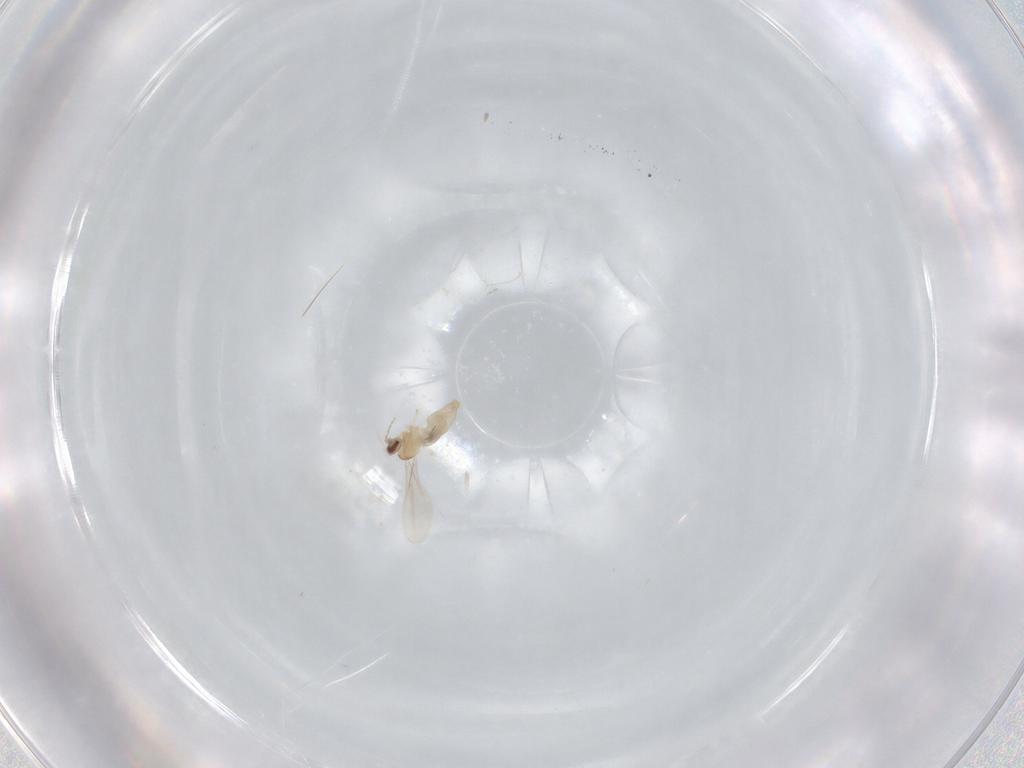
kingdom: Animalia
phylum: Arthropoda
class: Insecta
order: Diptera
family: Cecidomyiidae
